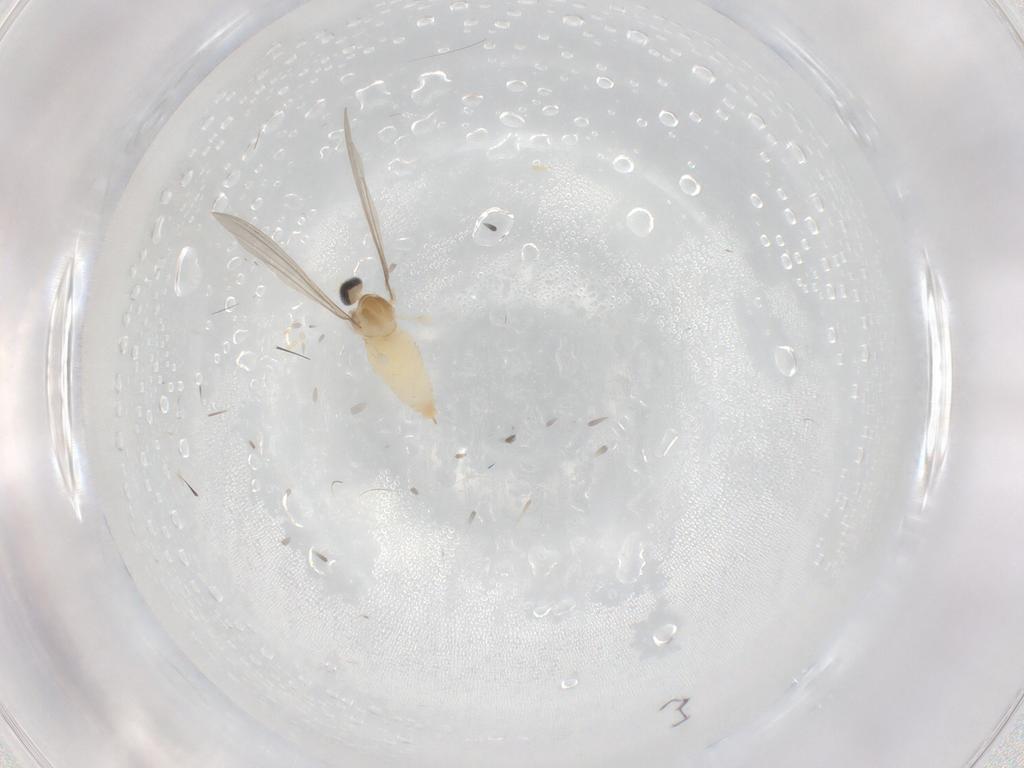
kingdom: Animalia
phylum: Arthropoda
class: Insecta
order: Diptera
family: Cecidomyiidae
